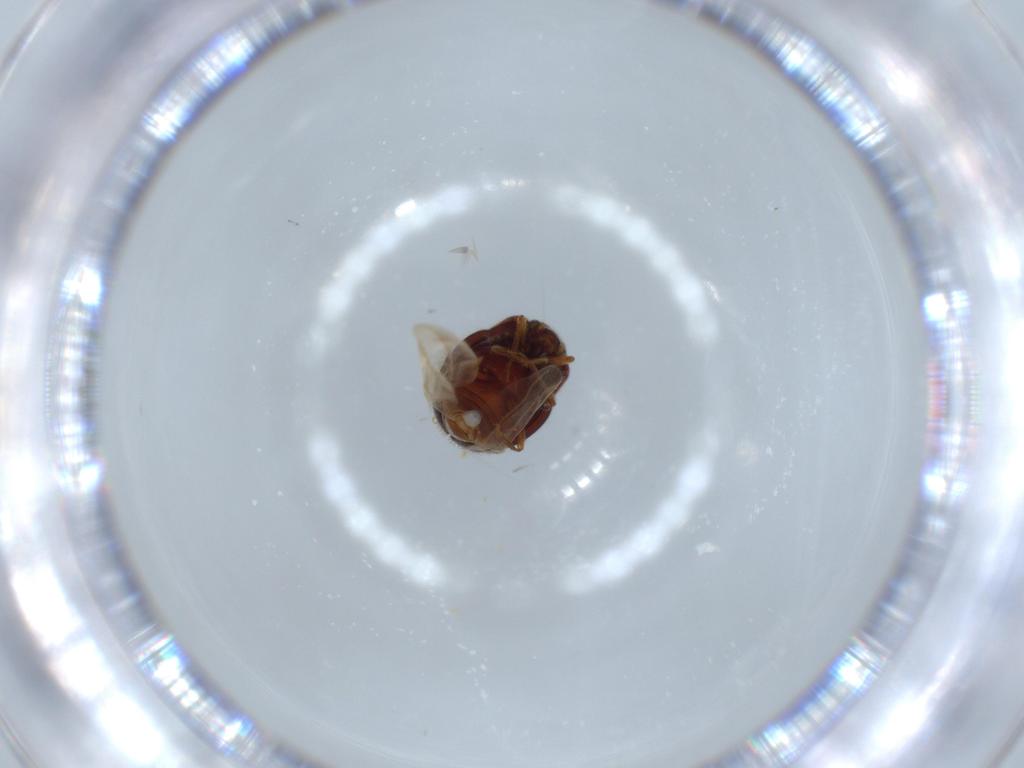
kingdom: Animalia
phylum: Arthropoda
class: Insecta
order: Coleoptera
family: Anamorphidae
